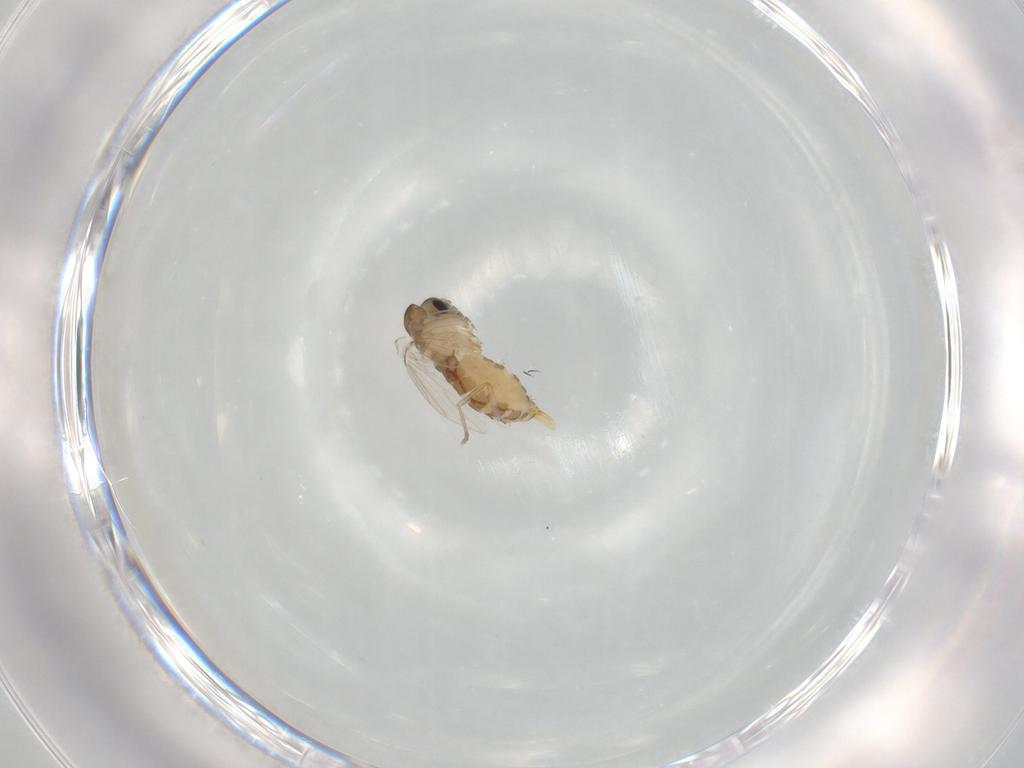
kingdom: Animalia
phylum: Arthropoda
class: Insecta
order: Diptera
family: Psychodidae
